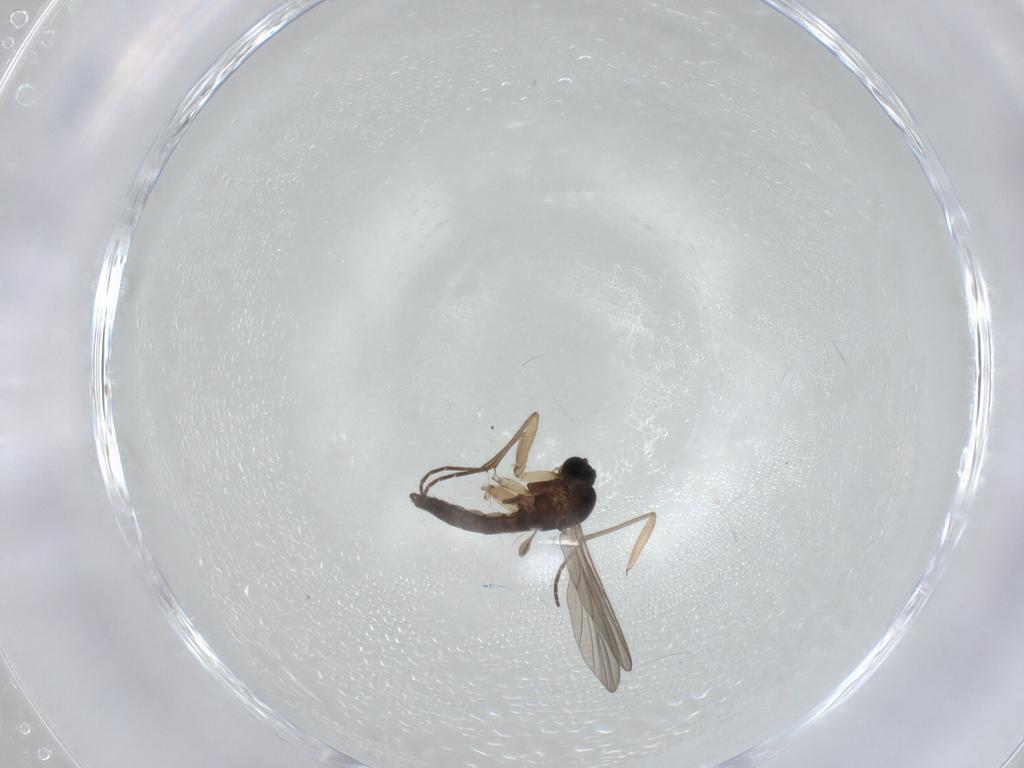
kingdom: Animalia
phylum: Arthropoda
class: Insecta
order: Diptera
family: Sciaridae
